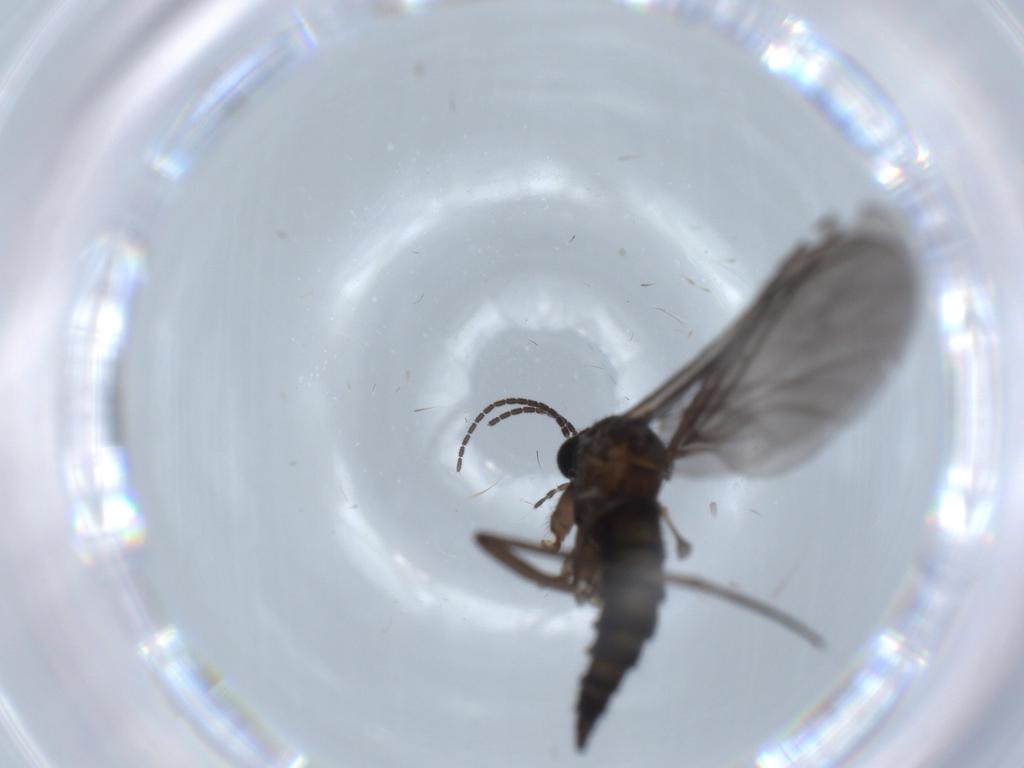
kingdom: Animalia
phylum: Arthropoda
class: Insecta
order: Diptera
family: Sciaridae
